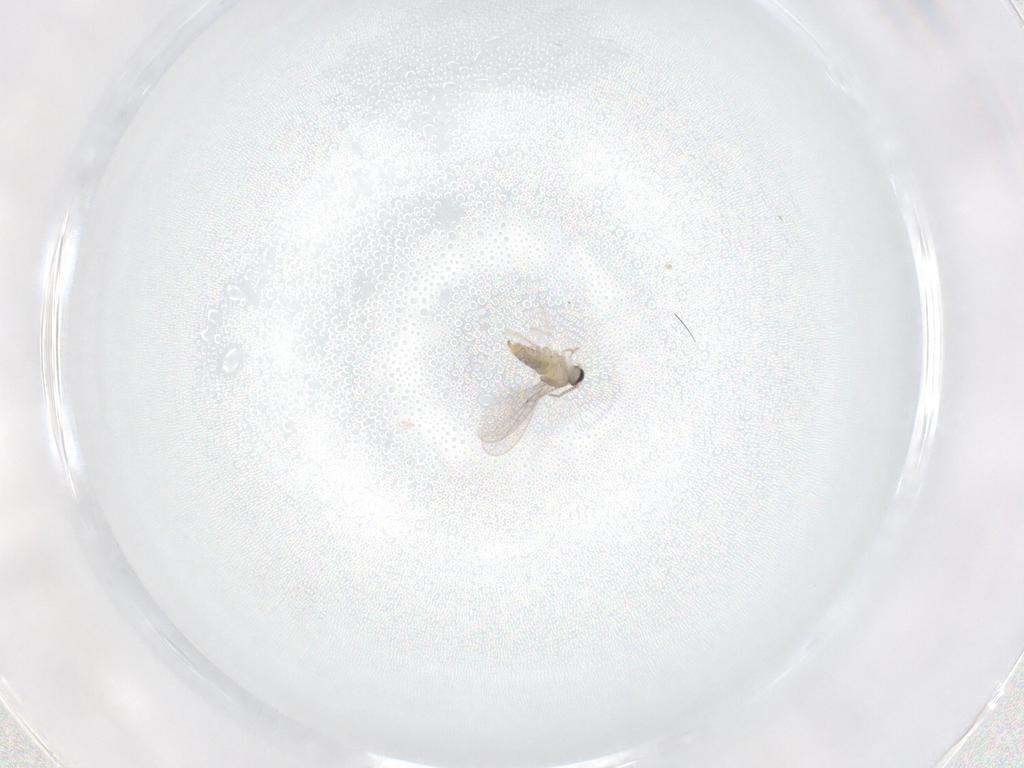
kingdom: Animalia
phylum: Arthropoda
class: Insecta
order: Diptera
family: Cecidomyiidae
